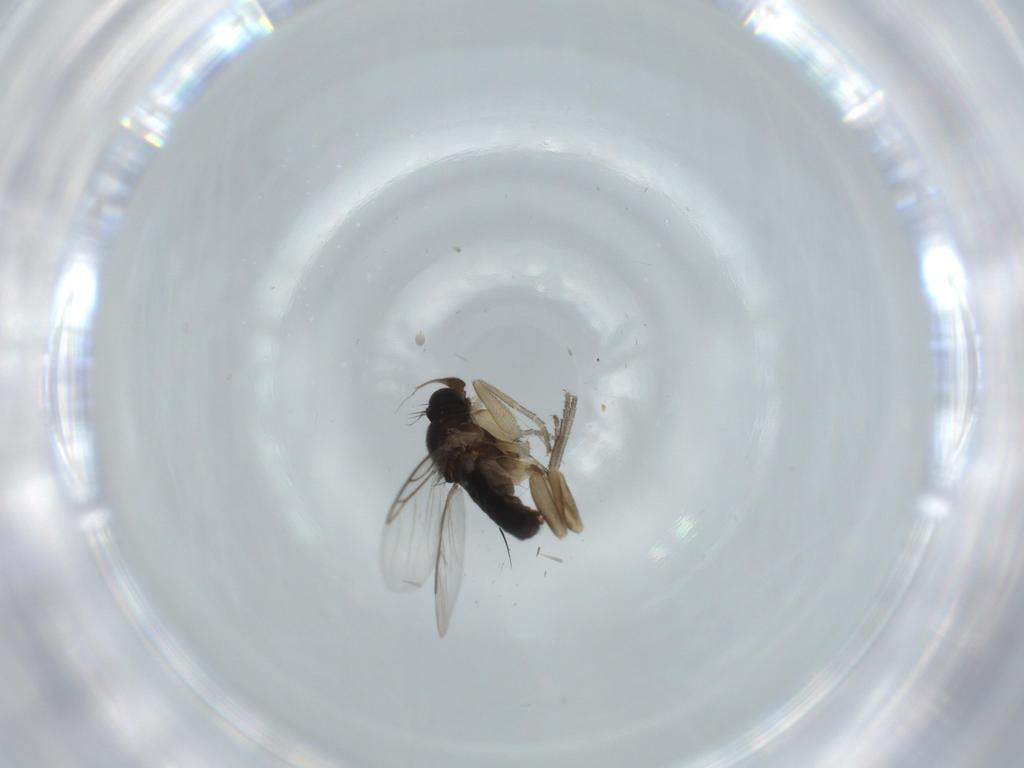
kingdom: Animalia
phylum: Arthropoda
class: Insecta
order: Diptera
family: Phoridae
